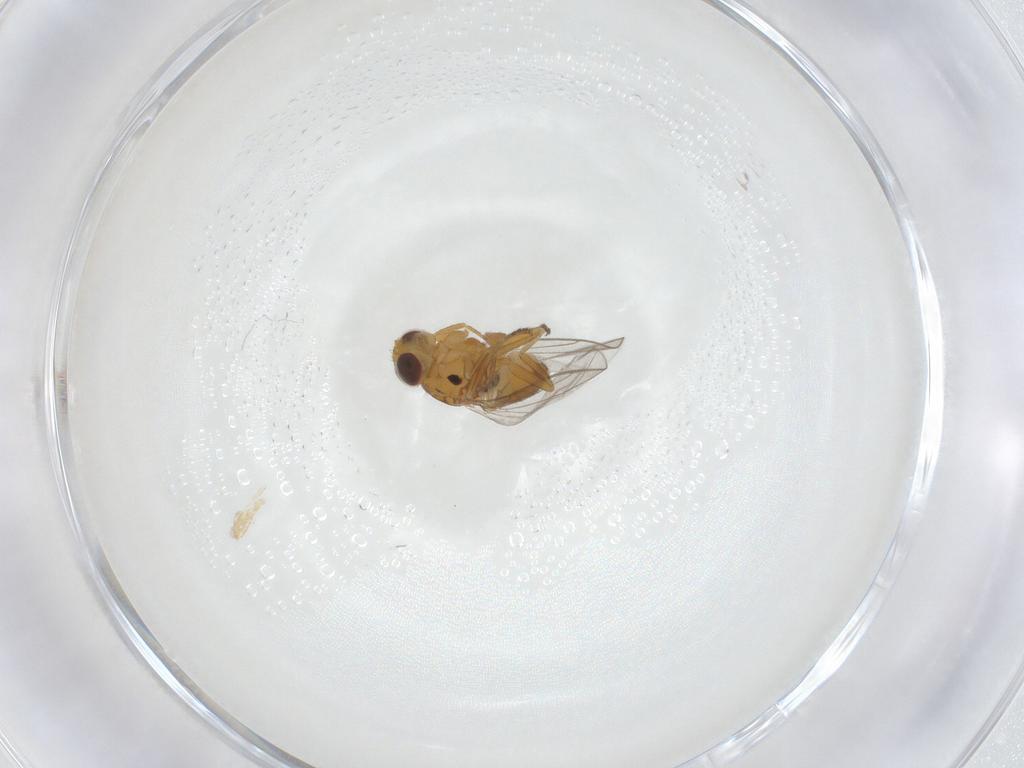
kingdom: Animalia
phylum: Arthropoda
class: Insecta
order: Diptera
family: Chloropidae
